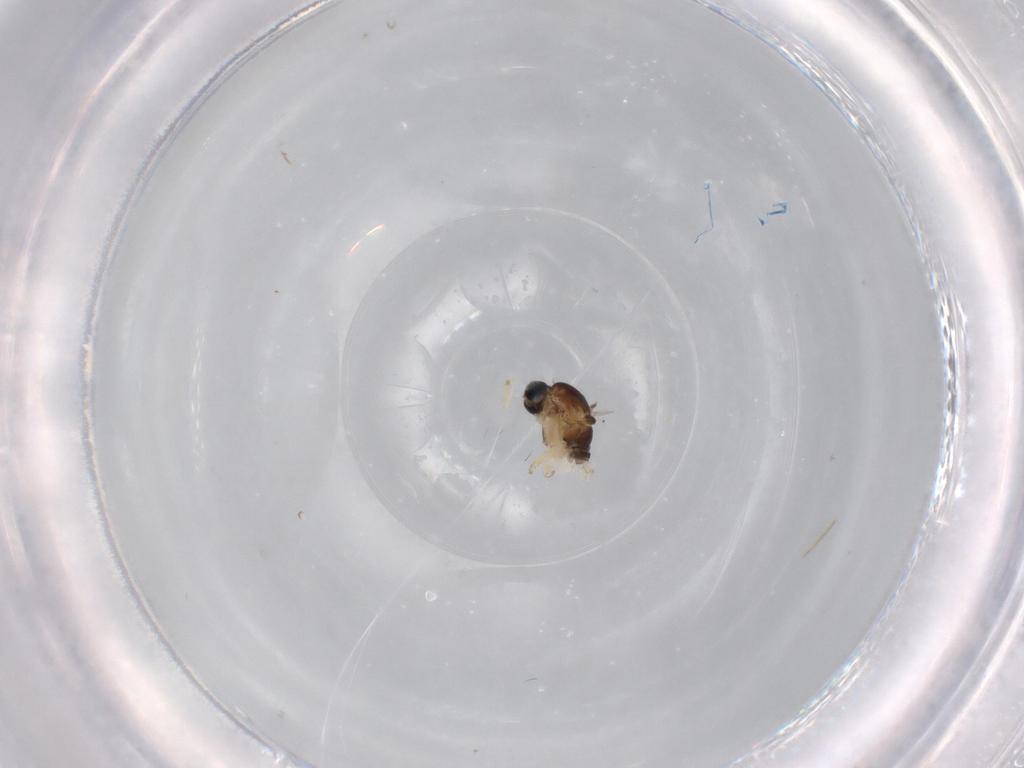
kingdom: Animalia
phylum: Arthropoda
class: Insecta
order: Diptera
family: Sciaridae
